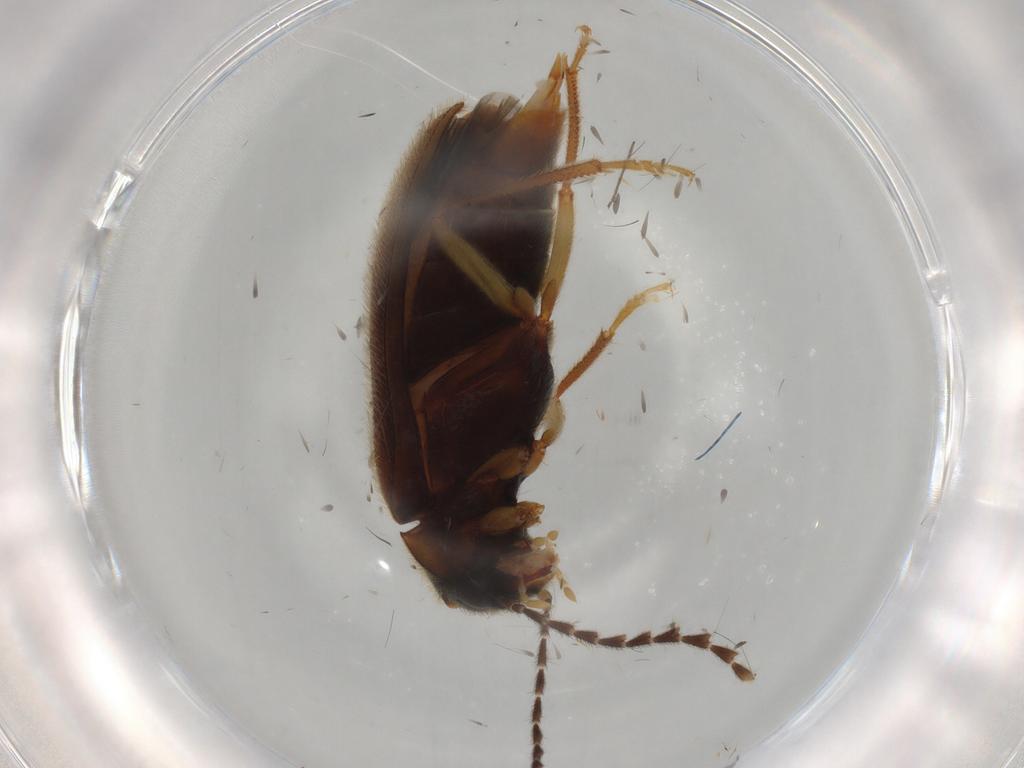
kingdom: Animalia
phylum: Arthropoda
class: Insecta
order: Coleoptera
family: Ptilodactylidae
